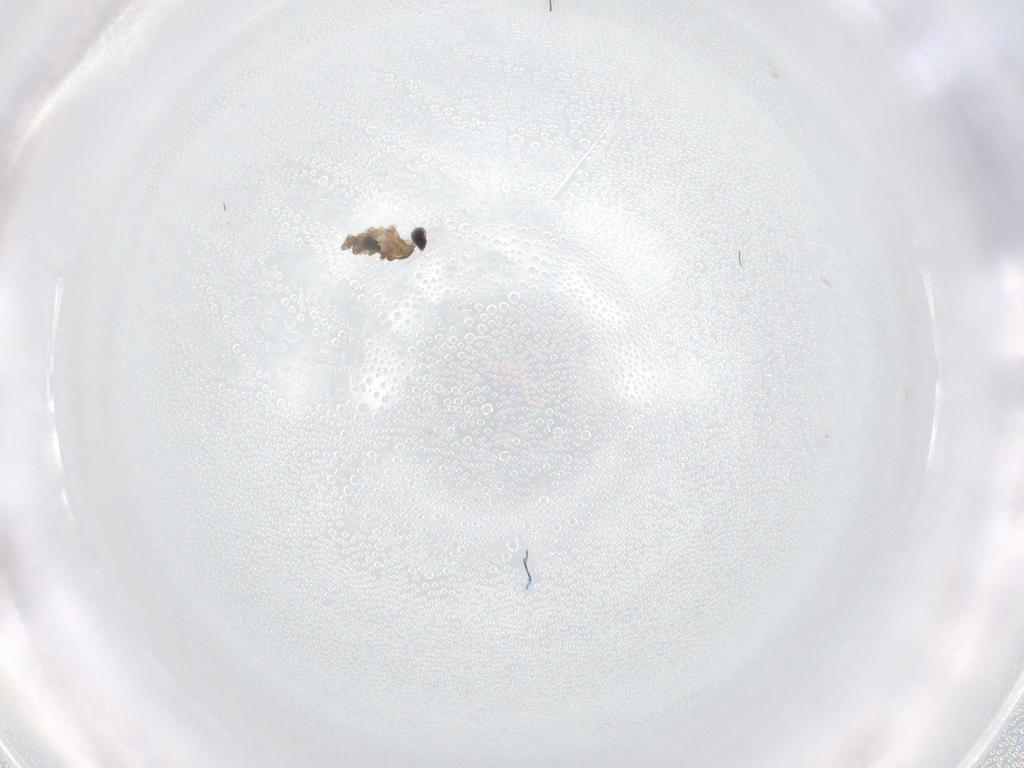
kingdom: Animalia
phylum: Arthropoda
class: Insecta
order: Diptera
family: Cecidomyiidae
